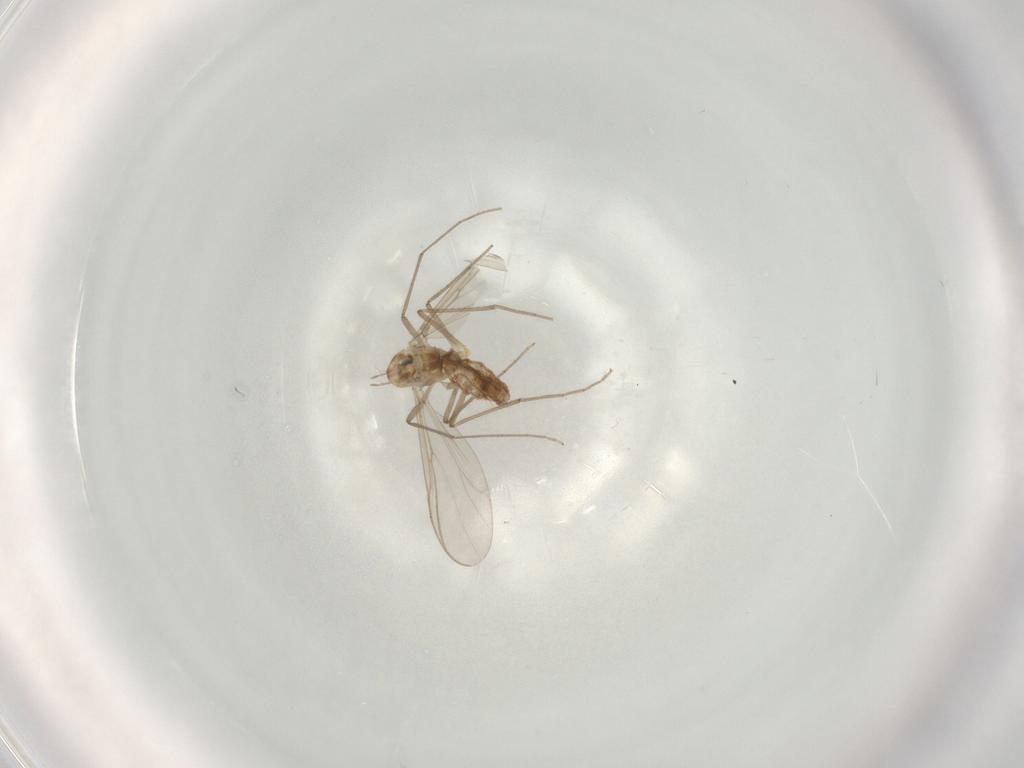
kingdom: Animalia
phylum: Arthropoda
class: Insecta
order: Diptera
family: Chironomidae
